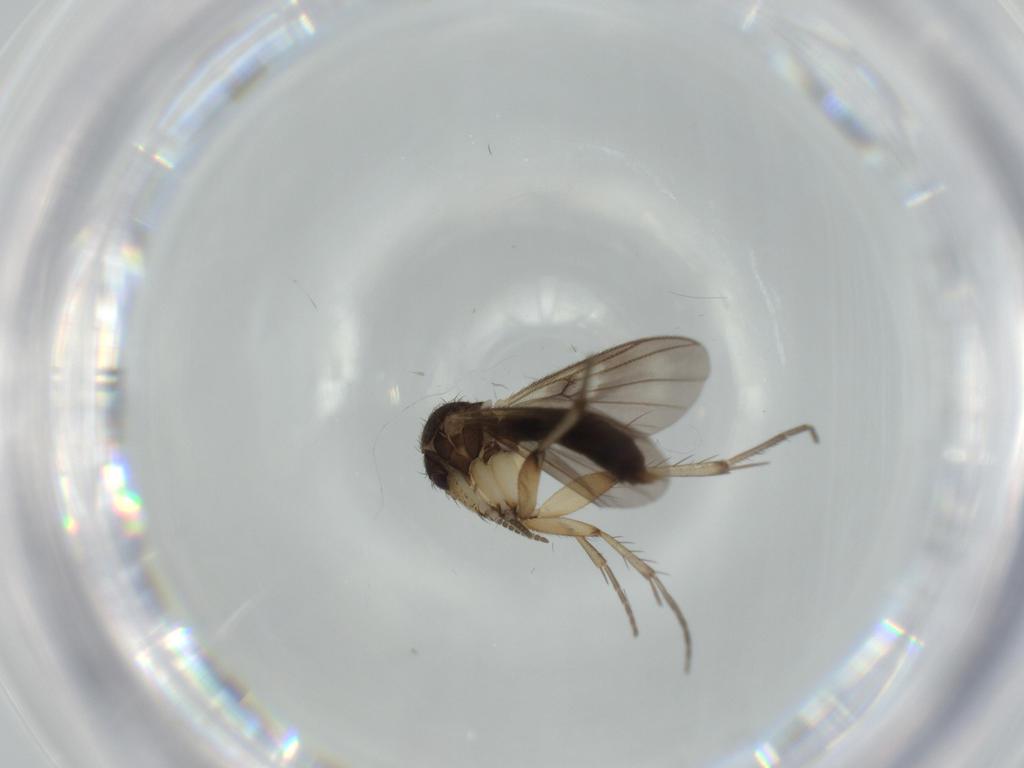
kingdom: Animalia
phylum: Arthropoda
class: Insecta
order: Diptera
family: Mycetophilidae
